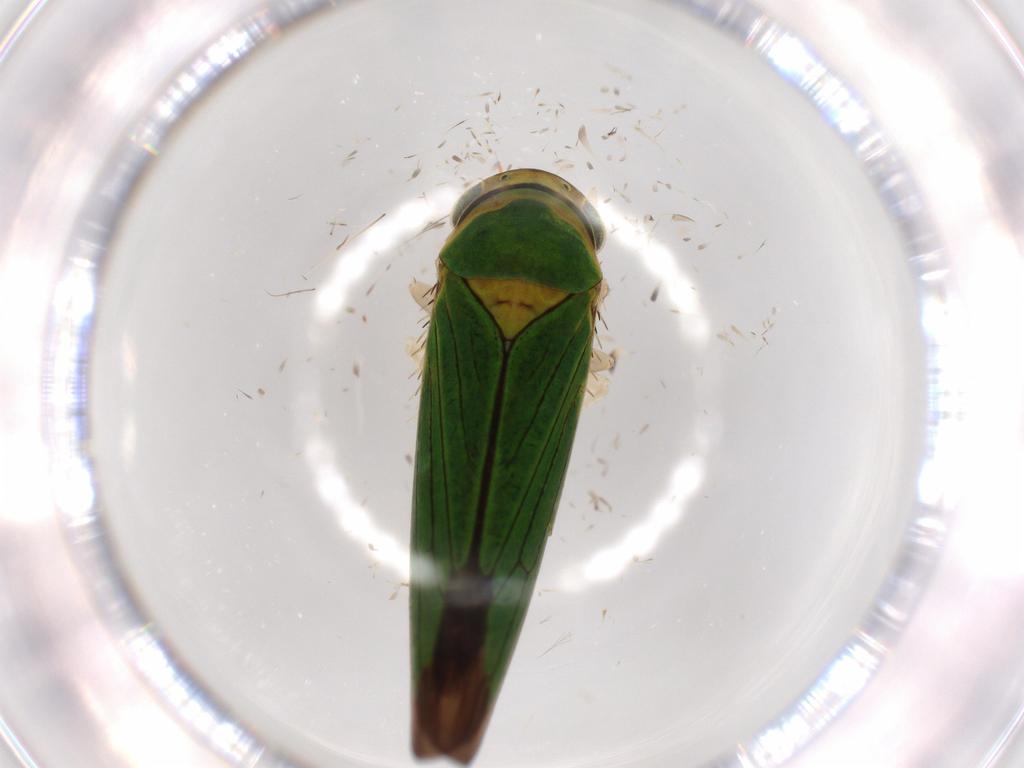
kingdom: Animalia
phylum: Arthropoda
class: Insecta
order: Hemiptera
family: Cicadellidae
